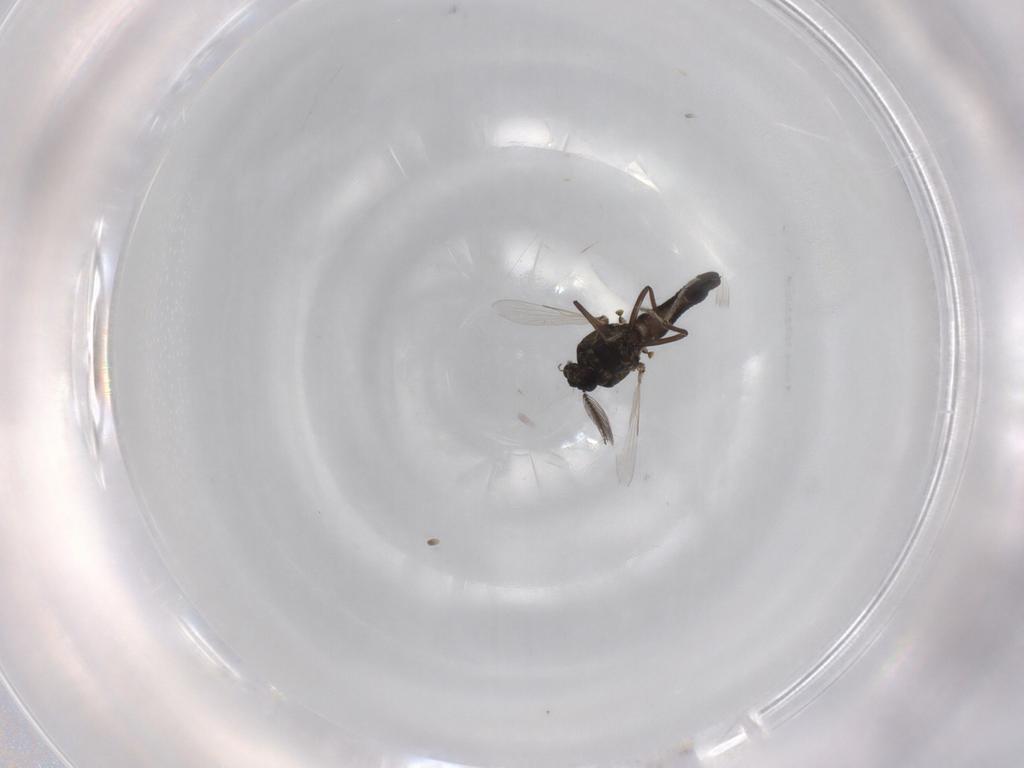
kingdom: Animalia
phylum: Arthropoda
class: Insecta
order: Diptera
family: Ceratopogonidae
